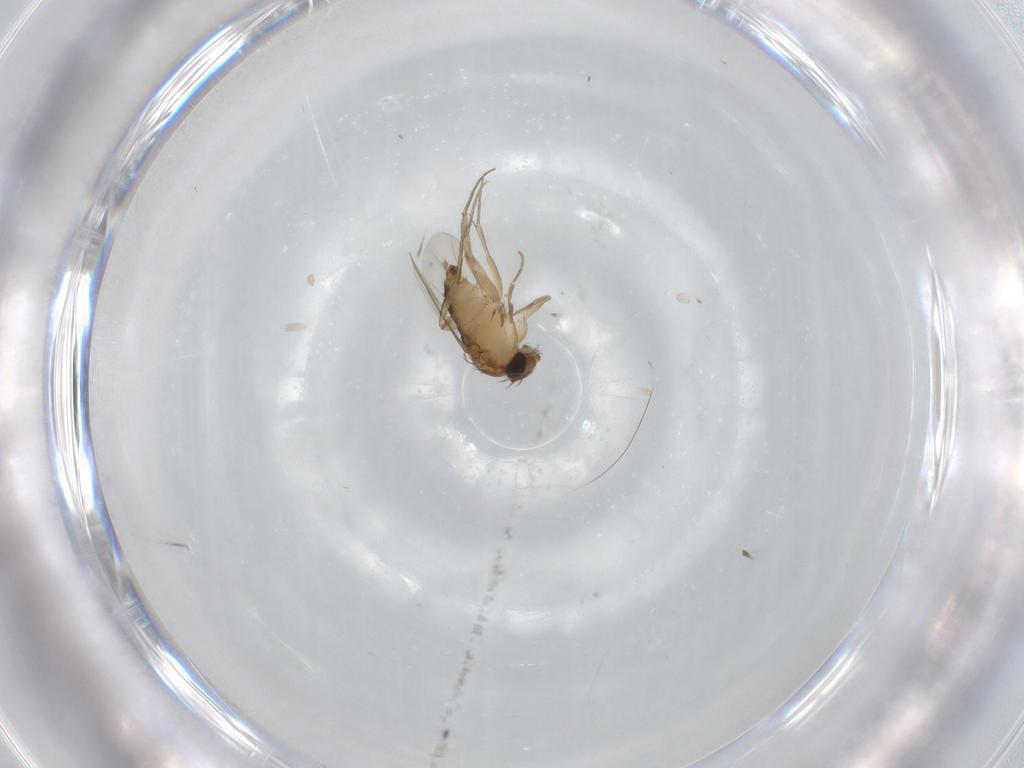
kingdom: Animalia
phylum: Arthropoda
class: Insecta
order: Diptera
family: Phoridae
